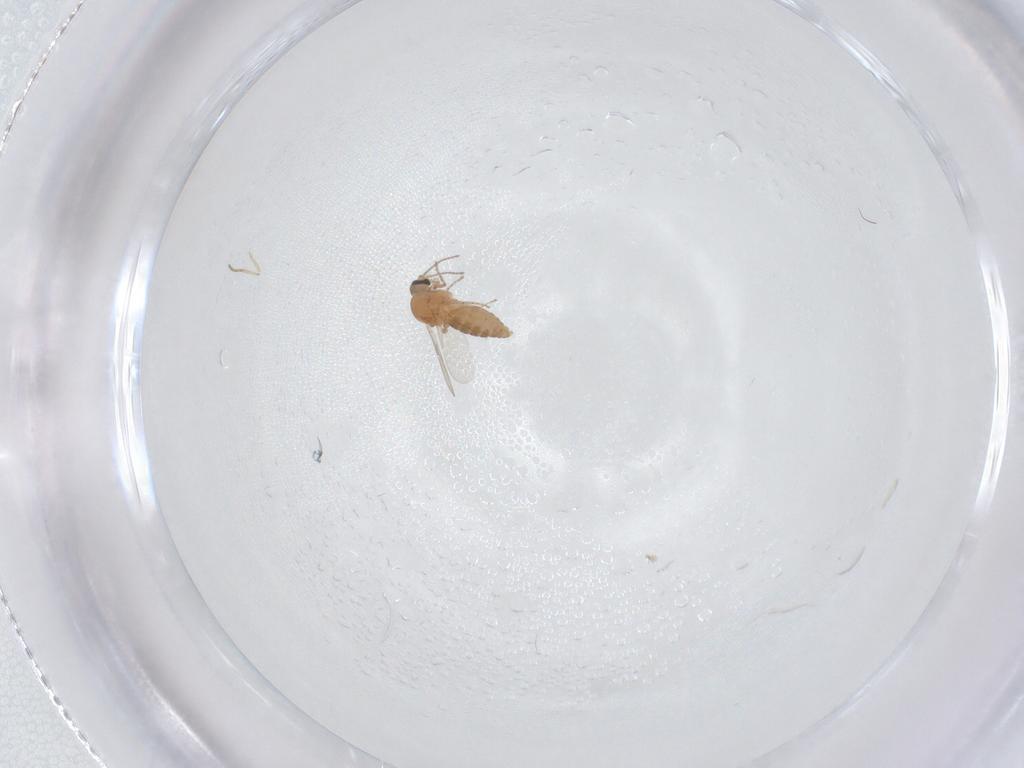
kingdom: Animalia
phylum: Arthropoda
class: Insecta
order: Diptera
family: Ceratopogonidae
